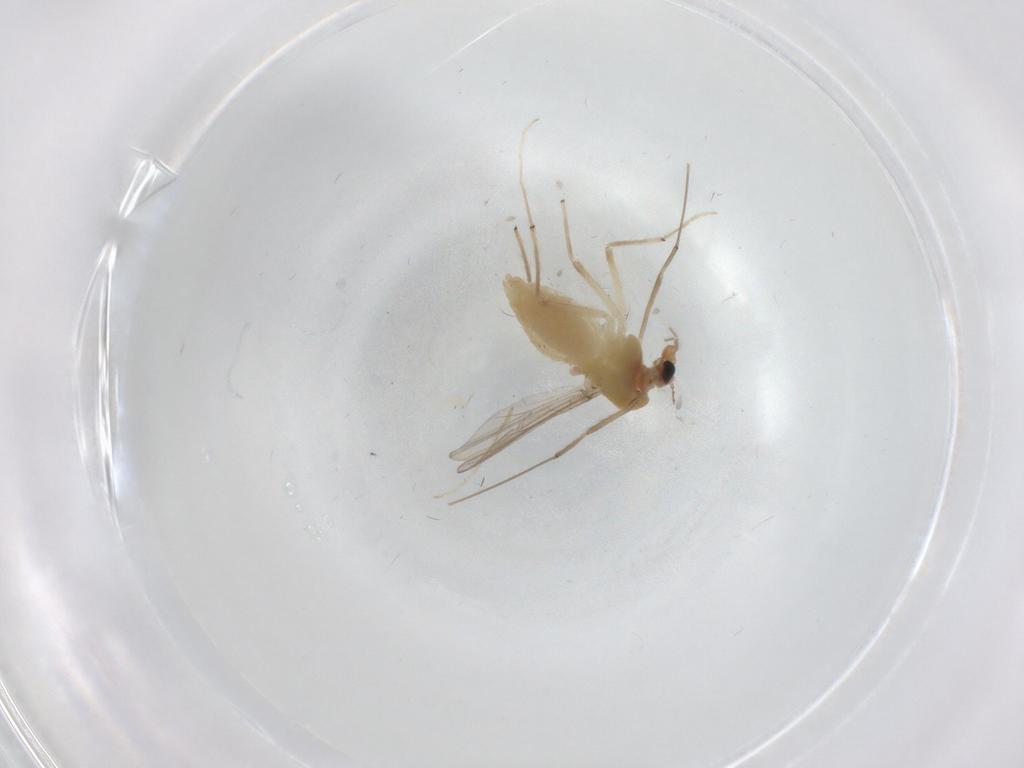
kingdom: Animalia
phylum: Arthropoda
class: Insecta
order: Diptera
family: Chironomidae
